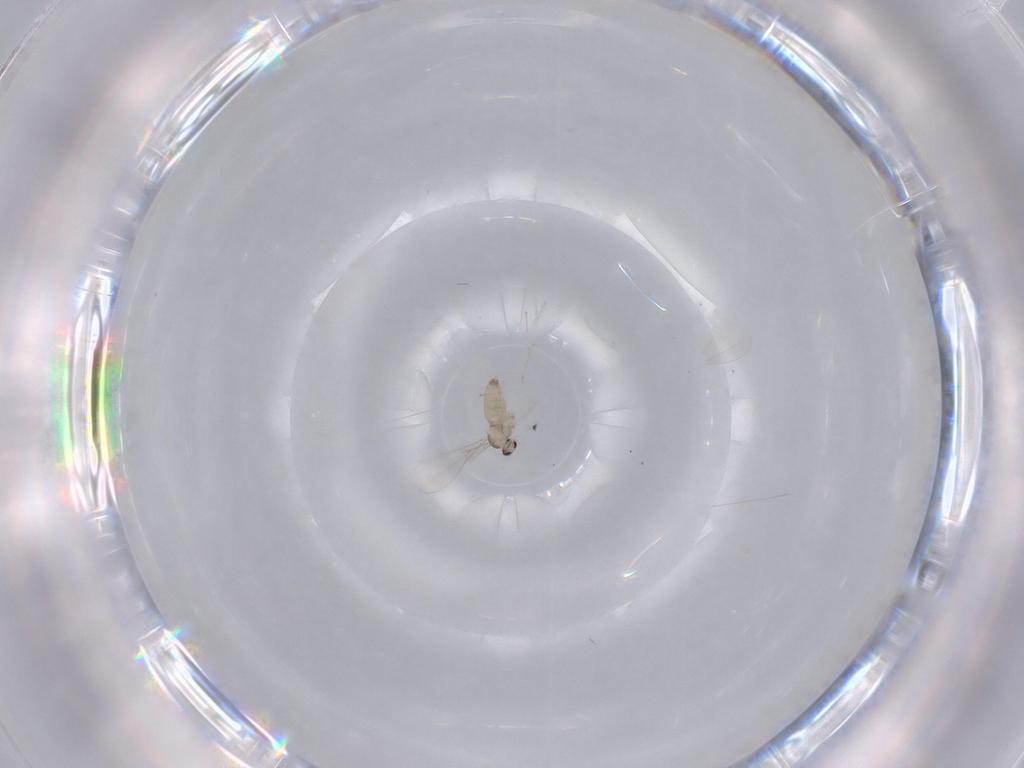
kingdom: Animalia
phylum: Arthropoda
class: Insecta
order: Diptera
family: Cecidomyiidae
